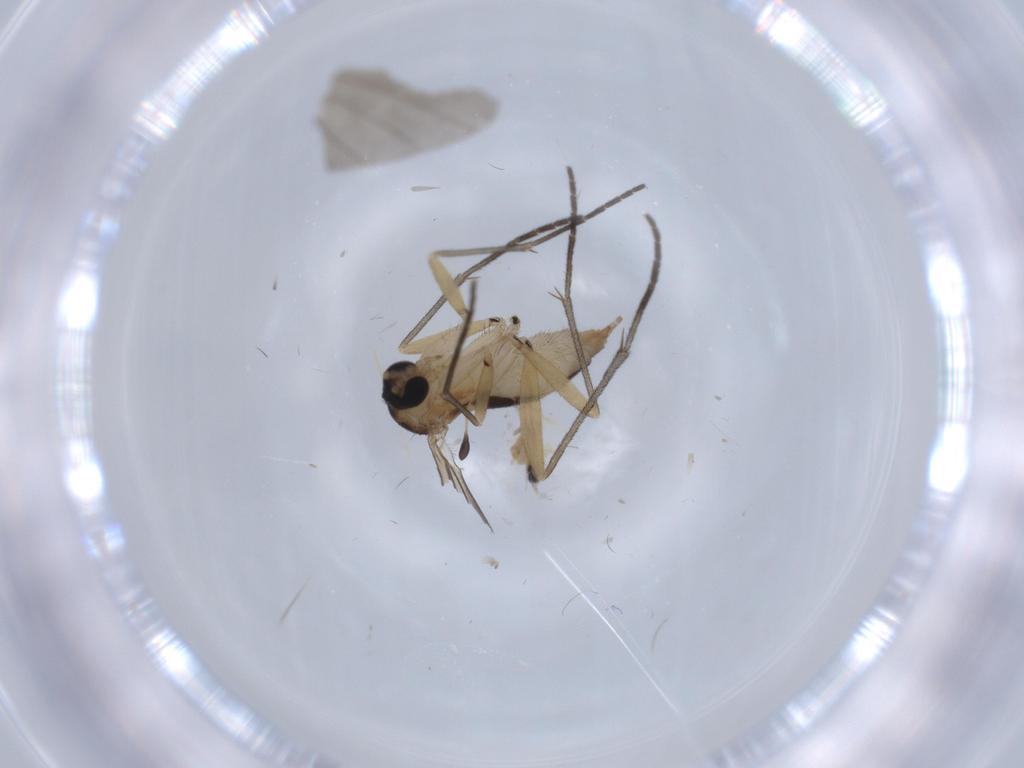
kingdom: Animalia
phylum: Arthropoda
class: Insecta
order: Diptera
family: Cecidomyiidae
